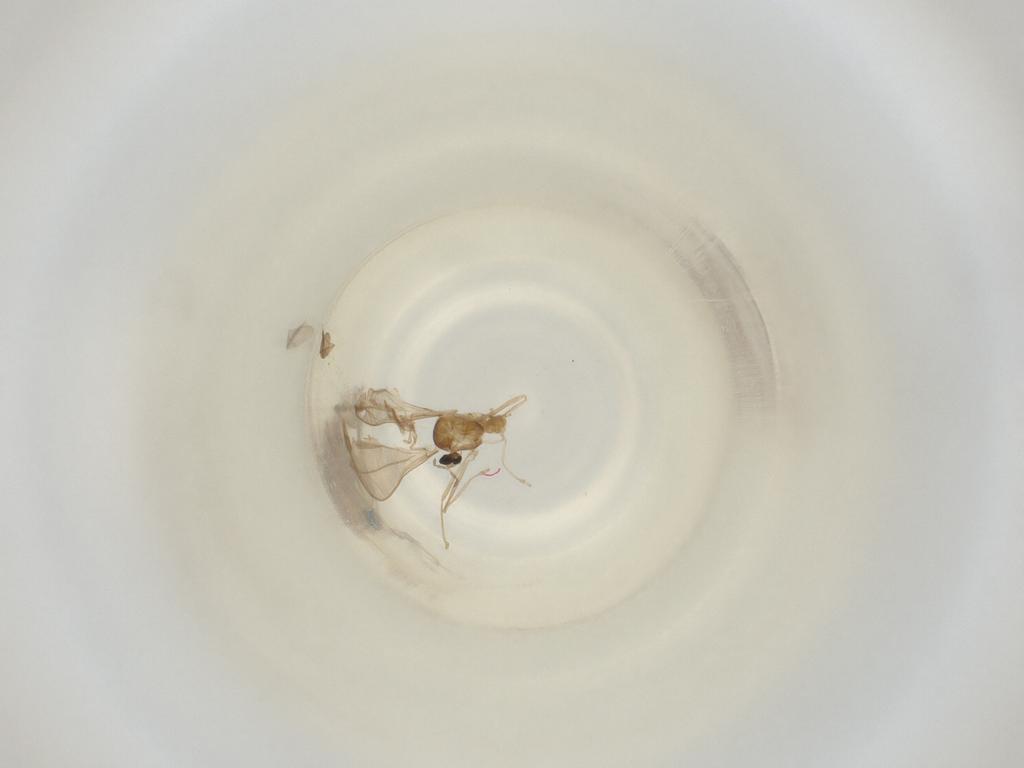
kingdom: Animalia
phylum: Arthropoda
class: Insecta
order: Diptera
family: Cecidomyiidae
